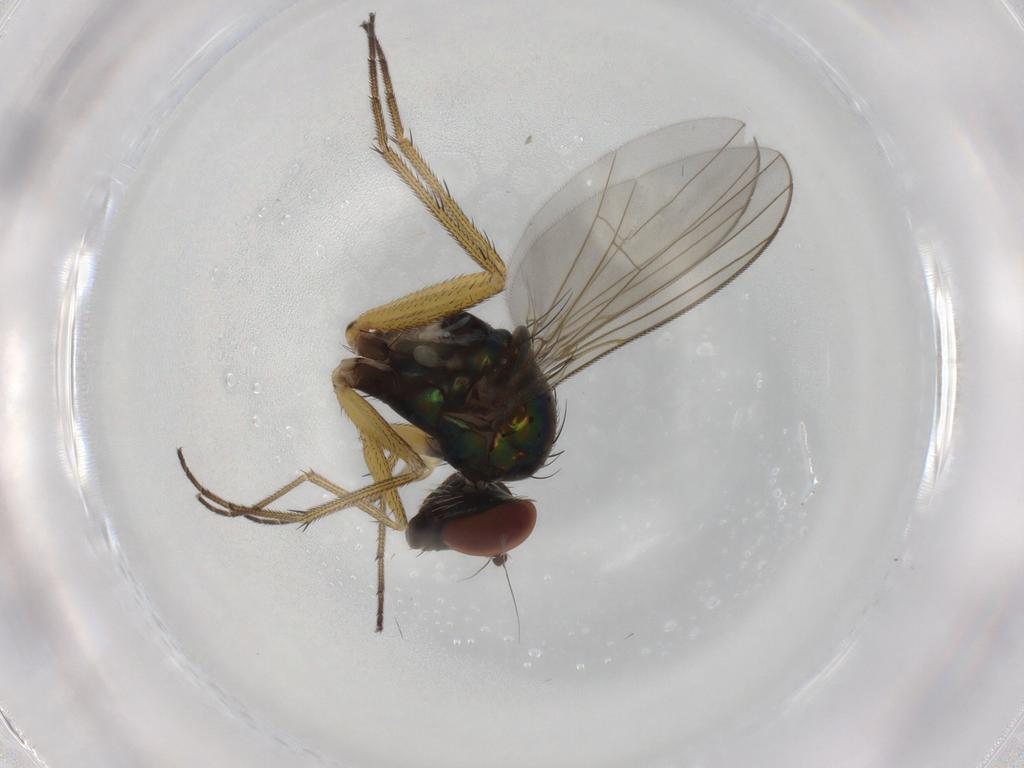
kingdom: Animalia
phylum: Arthropoda
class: Insecta
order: Diptera
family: Dolichopodidae
